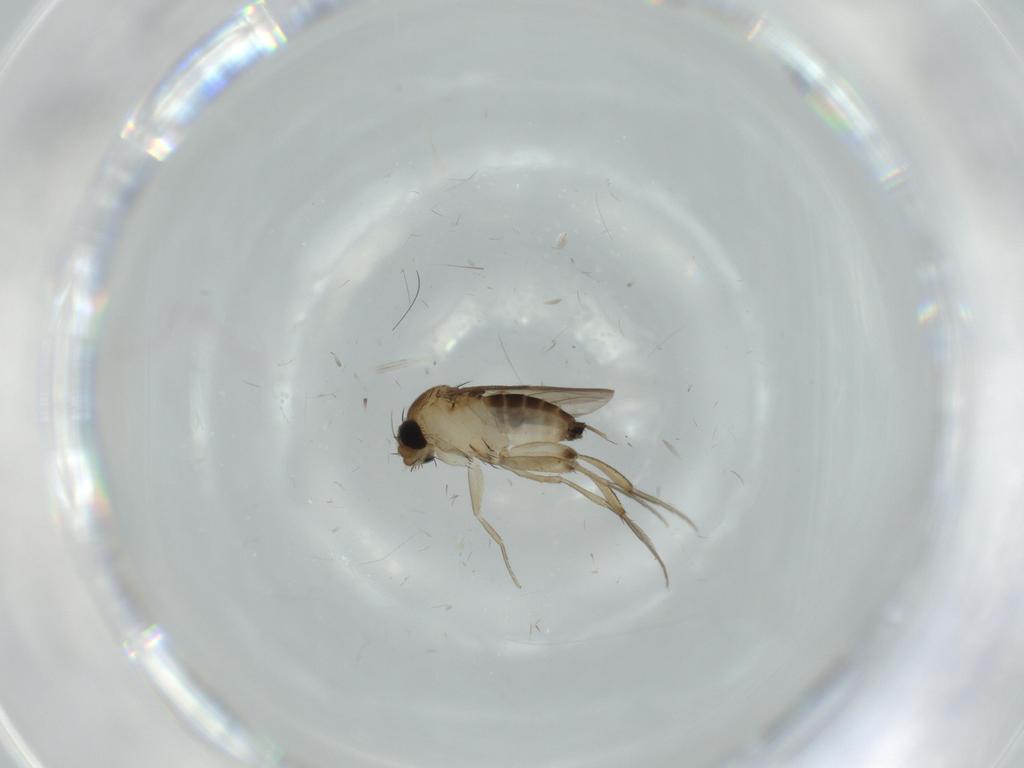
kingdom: Animalia
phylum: Arthropoda
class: Insecta
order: Diptera
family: Phoridae
